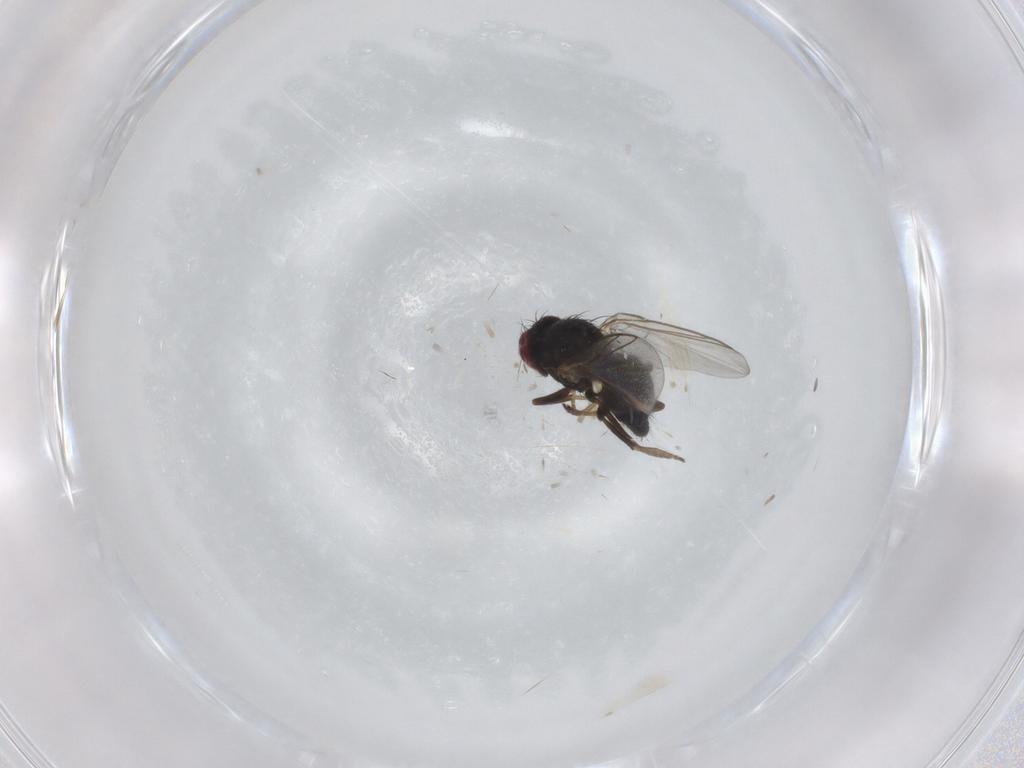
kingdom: Animalia
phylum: Arthropoda
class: Insecta
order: Diptera
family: Agromyzidae
